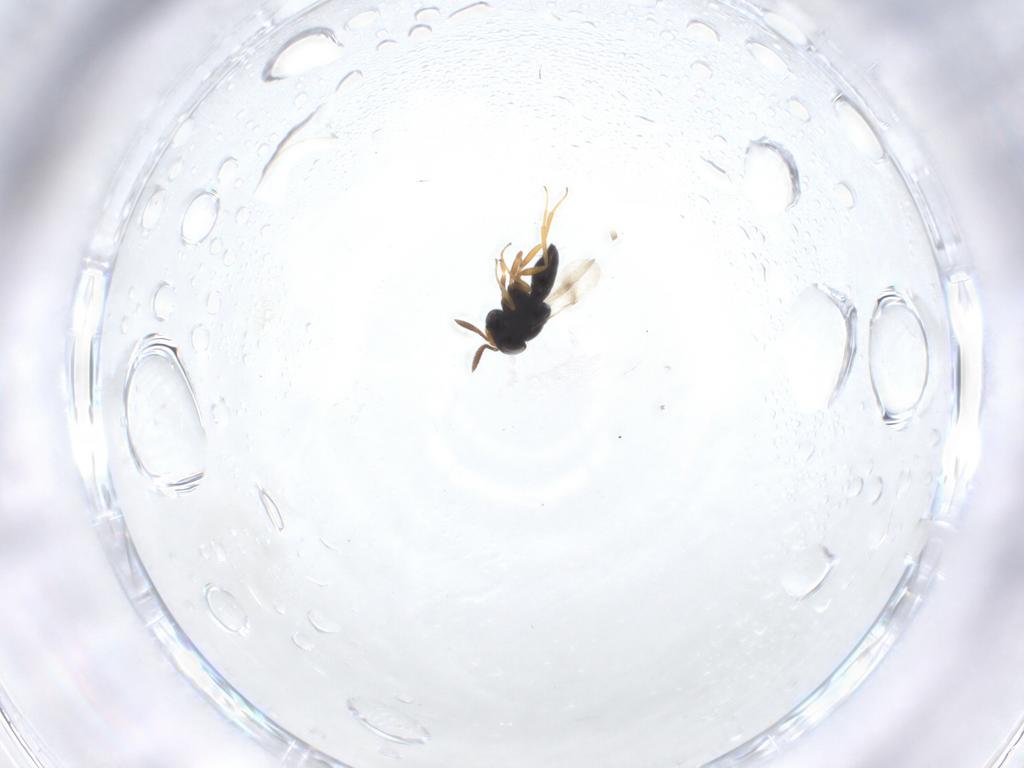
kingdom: Animalia
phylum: Arthropoda
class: Insecta
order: Hymenoptera
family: Scelionidae
